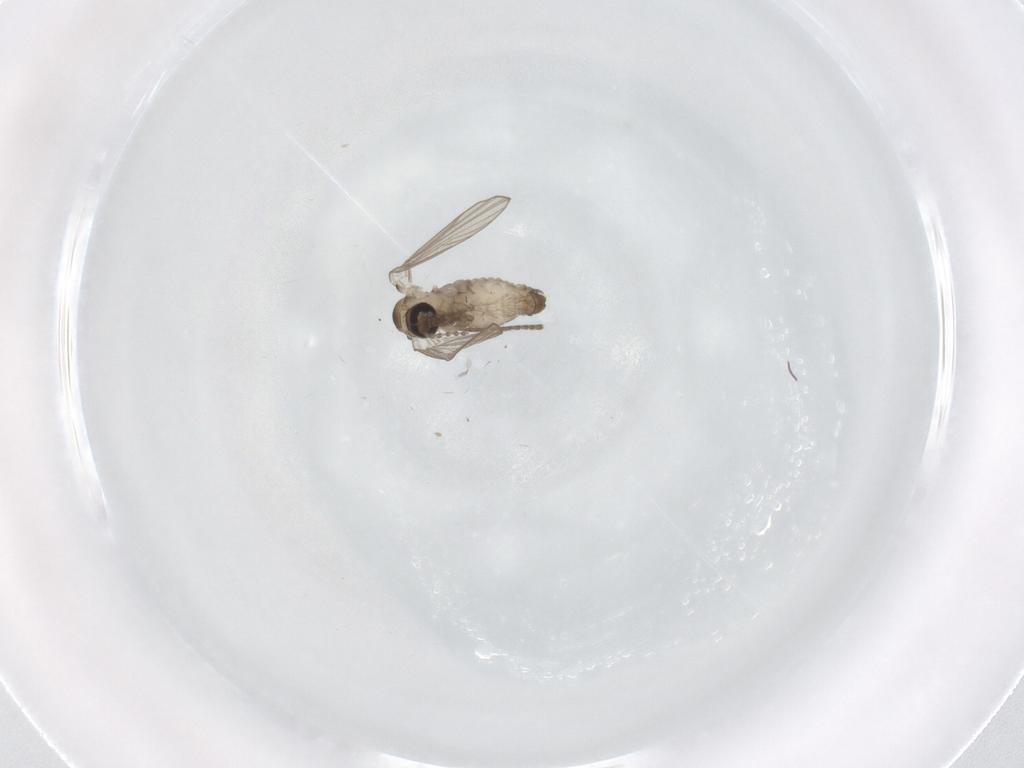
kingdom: Animalia
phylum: Arthropoda
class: Insecta
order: Diptera
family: Psychodidae
